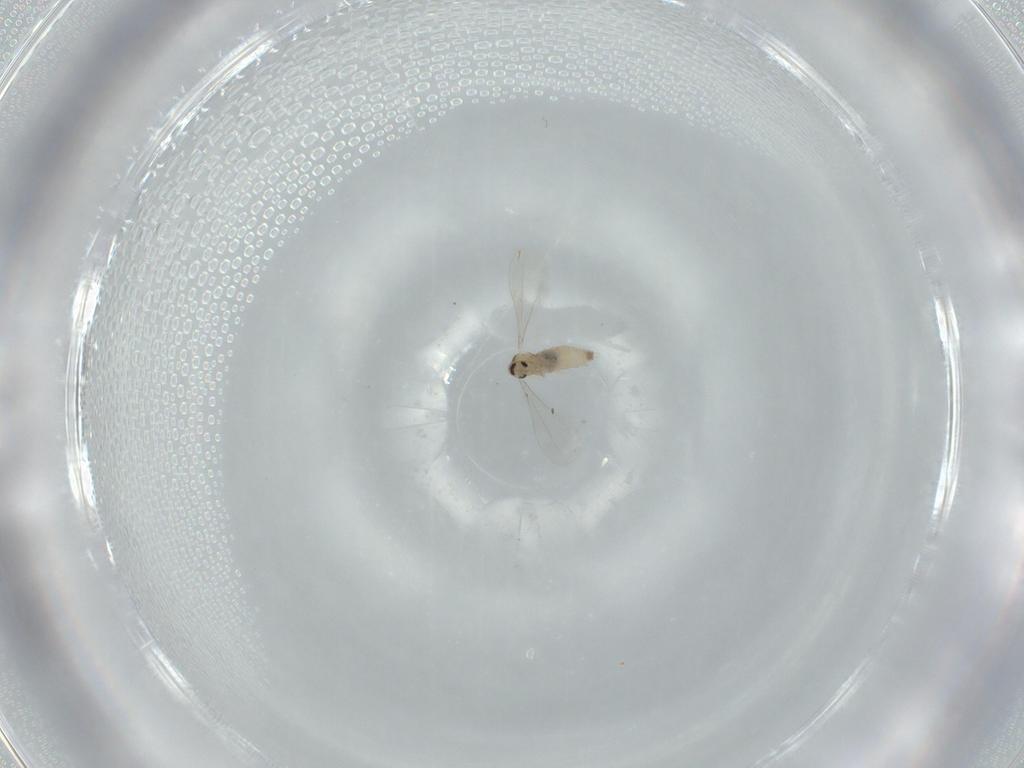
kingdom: Animalia
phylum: Arthropoda
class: Insecta
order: Diptera
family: Cecidomyiidae
